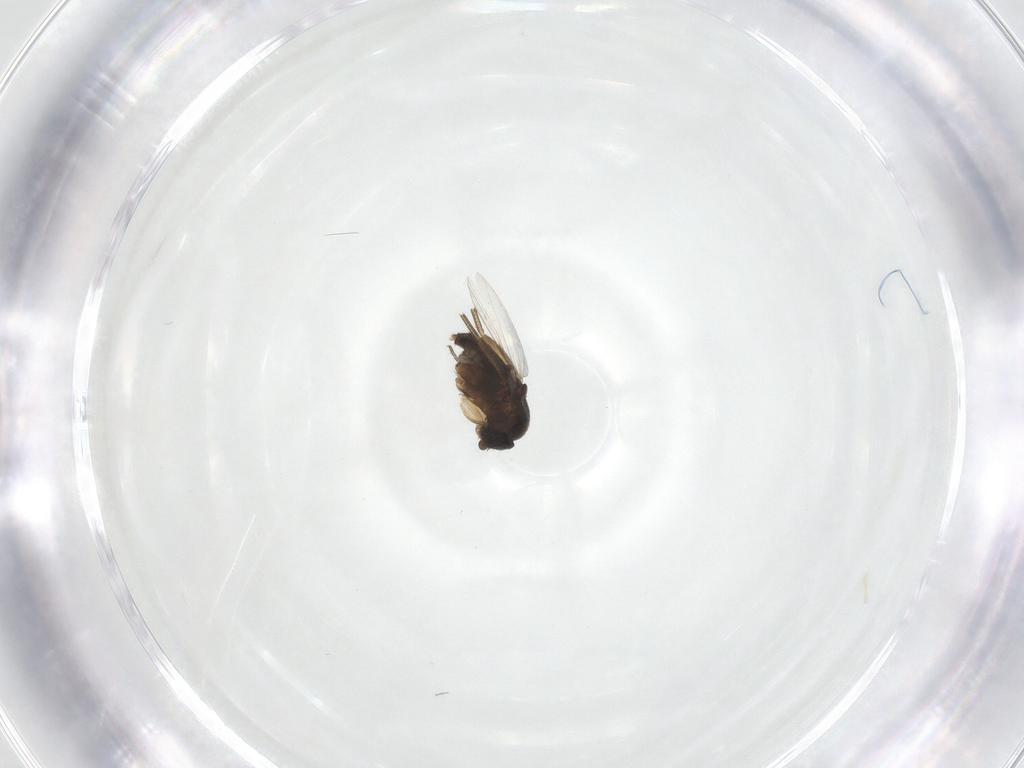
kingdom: Animalia
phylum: Arthropoda
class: Insecta
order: Diptera
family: Phoridae
